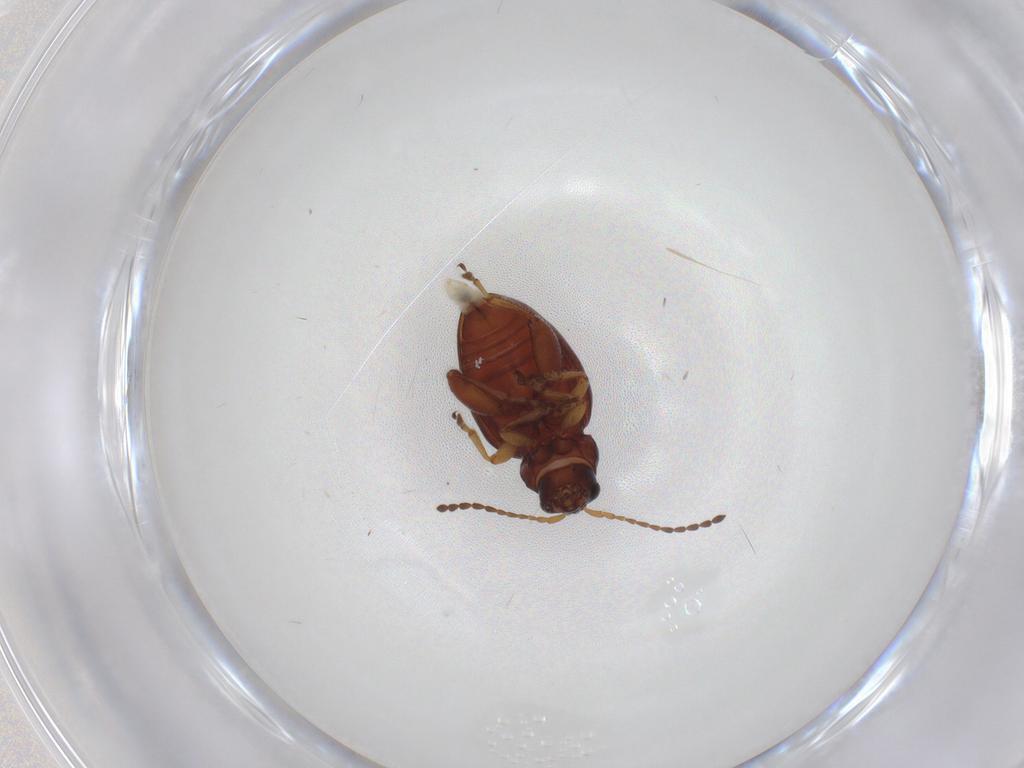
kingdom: Animalia
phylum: Arthropoda
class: Insecta
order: Coleoptera
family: Chrysomelidae
